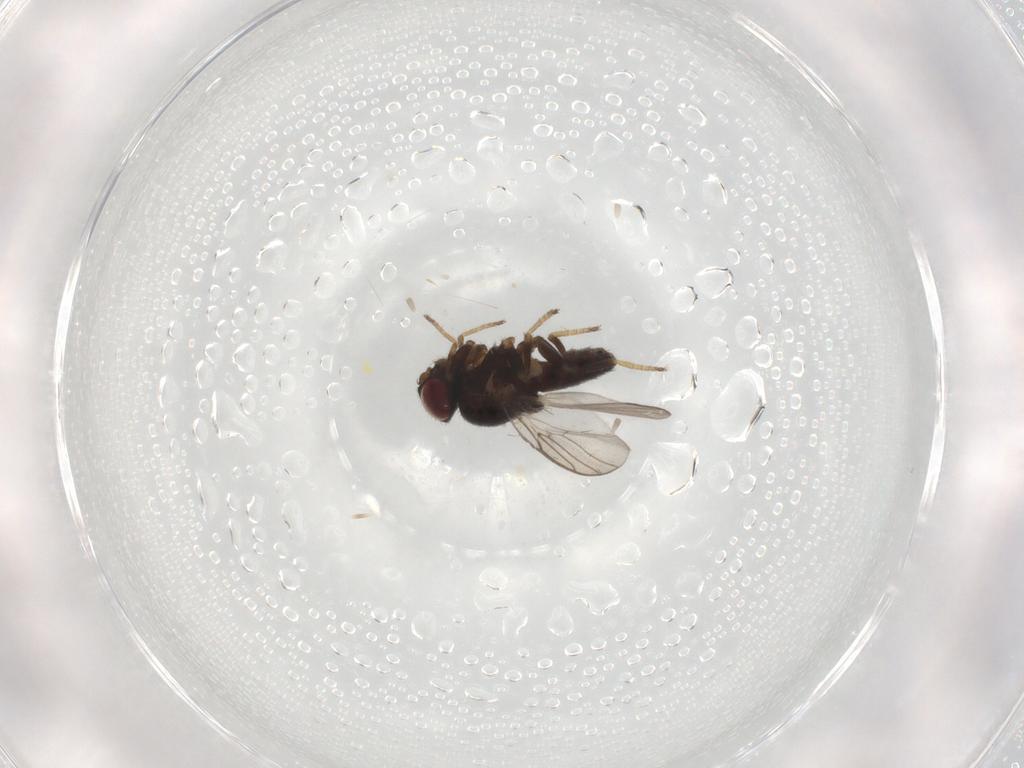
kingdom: Animalia
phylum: Arthropoda
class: Insecta
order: Diptera
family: Chloropidae
